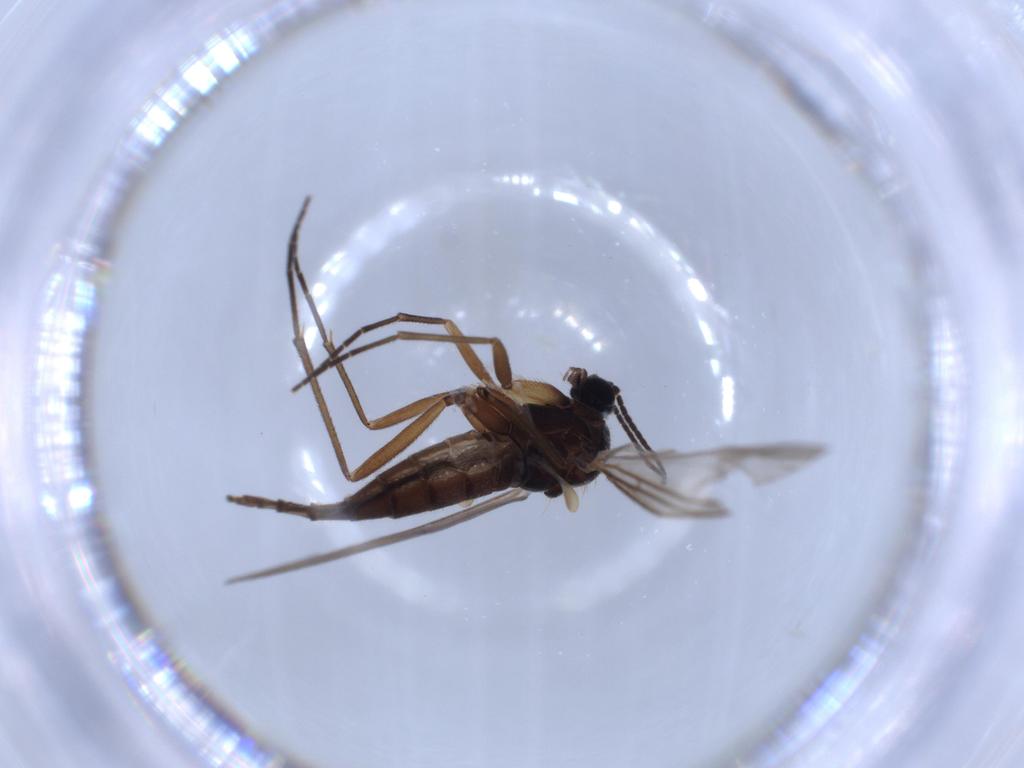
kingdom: Animalia
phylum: Arthropoda
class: Insecta
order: Diptera
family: Sciaridae
